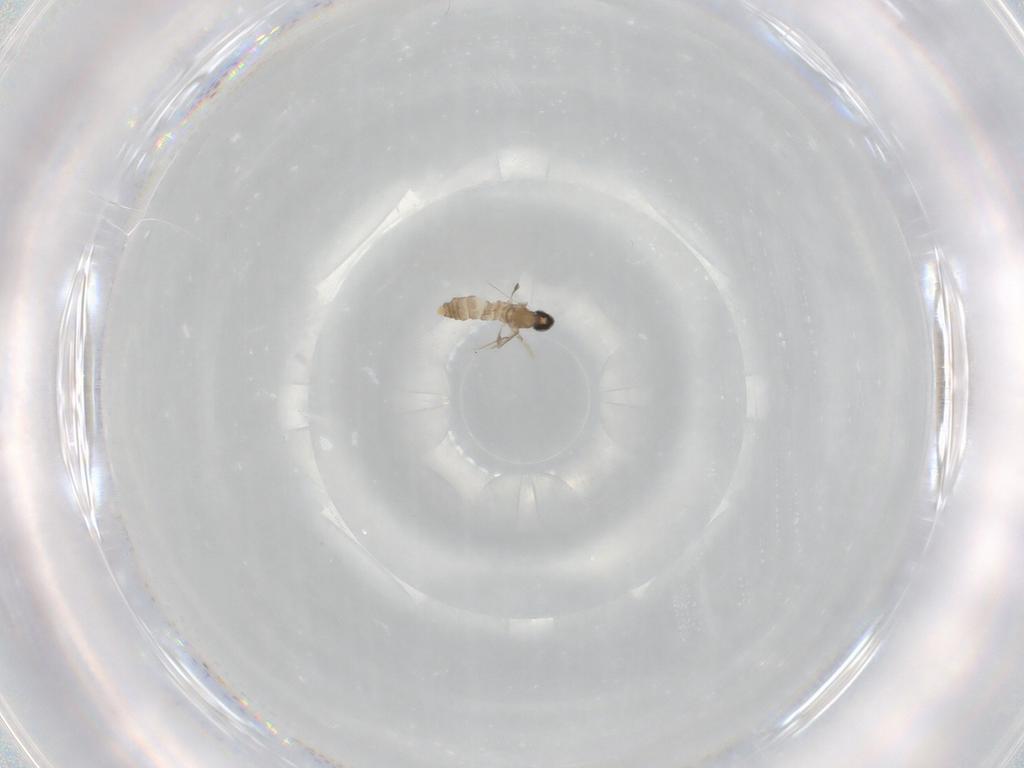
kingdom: Animalia
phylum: Arthropoda
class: Insecta
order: Diptera
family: Cecidomyiidae
